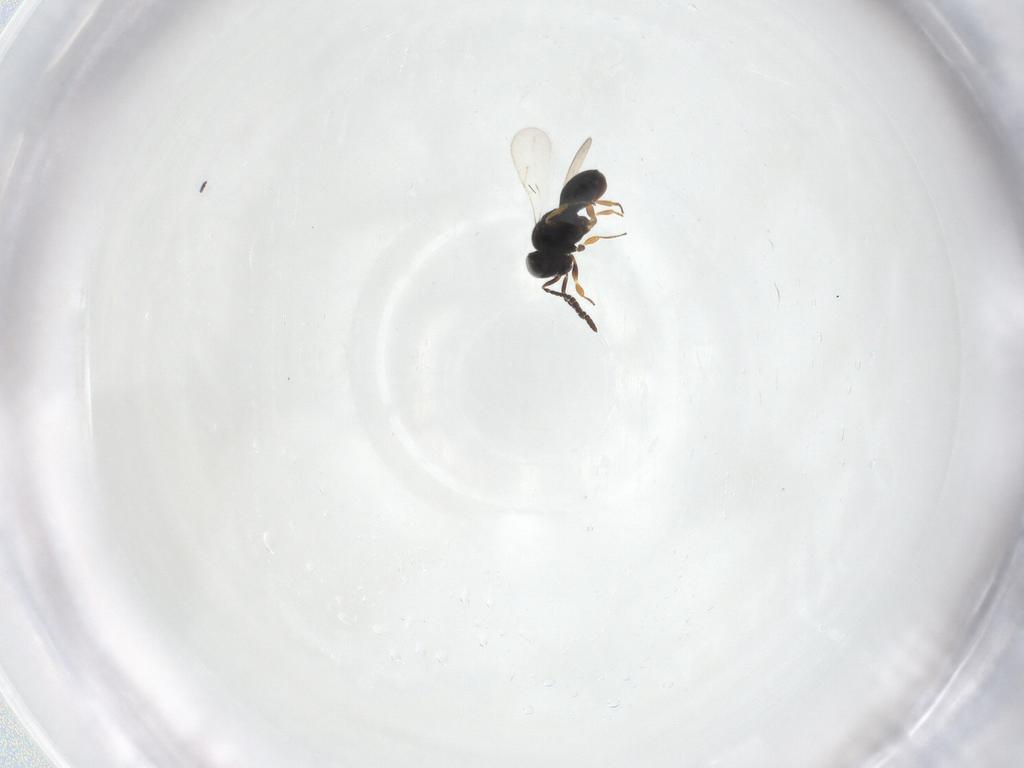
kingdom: Animalia
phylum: Arthropoda
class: Insecta
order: Hymenoptera
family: Scelionidae
